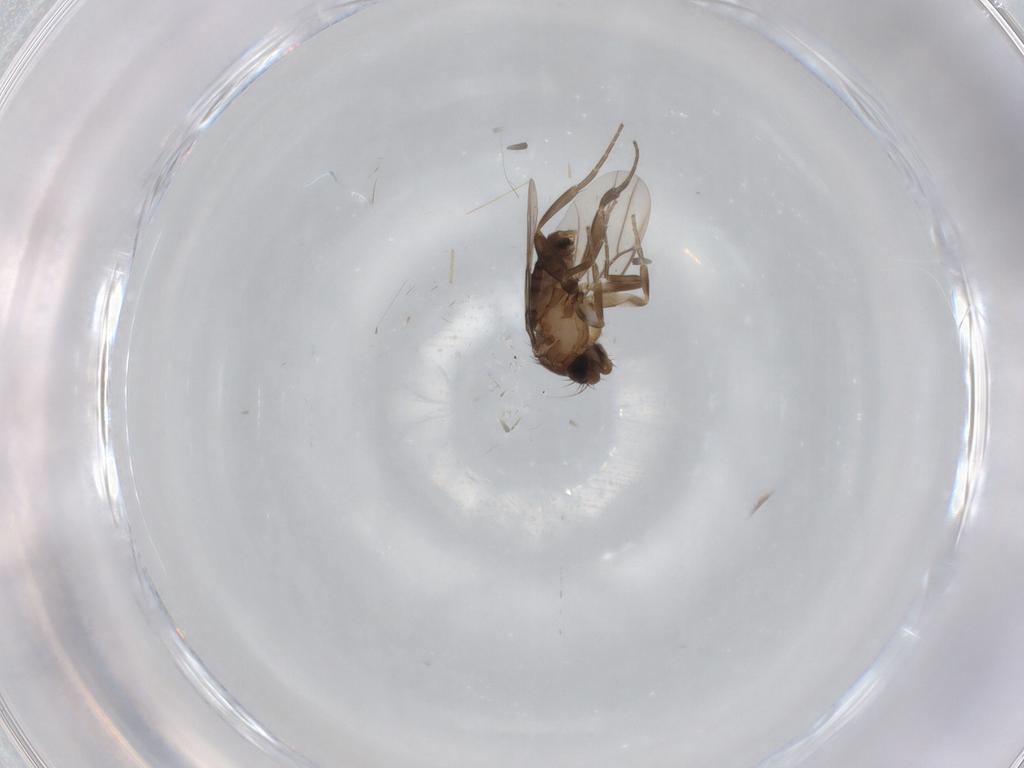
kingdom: Animalia
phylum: Arthropoda
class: Insecta
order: Diptera
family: Phoridae
